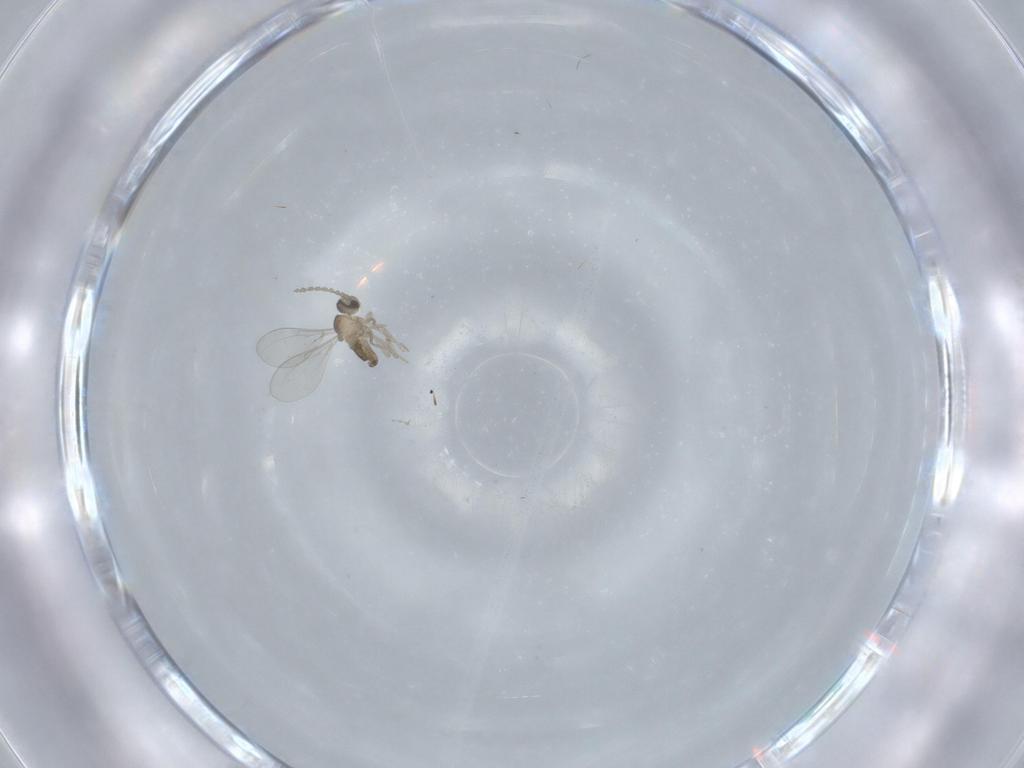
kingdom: Animalia
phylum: Arthropoda
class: Insecta
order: Diptera
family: Cecidomyiidae
